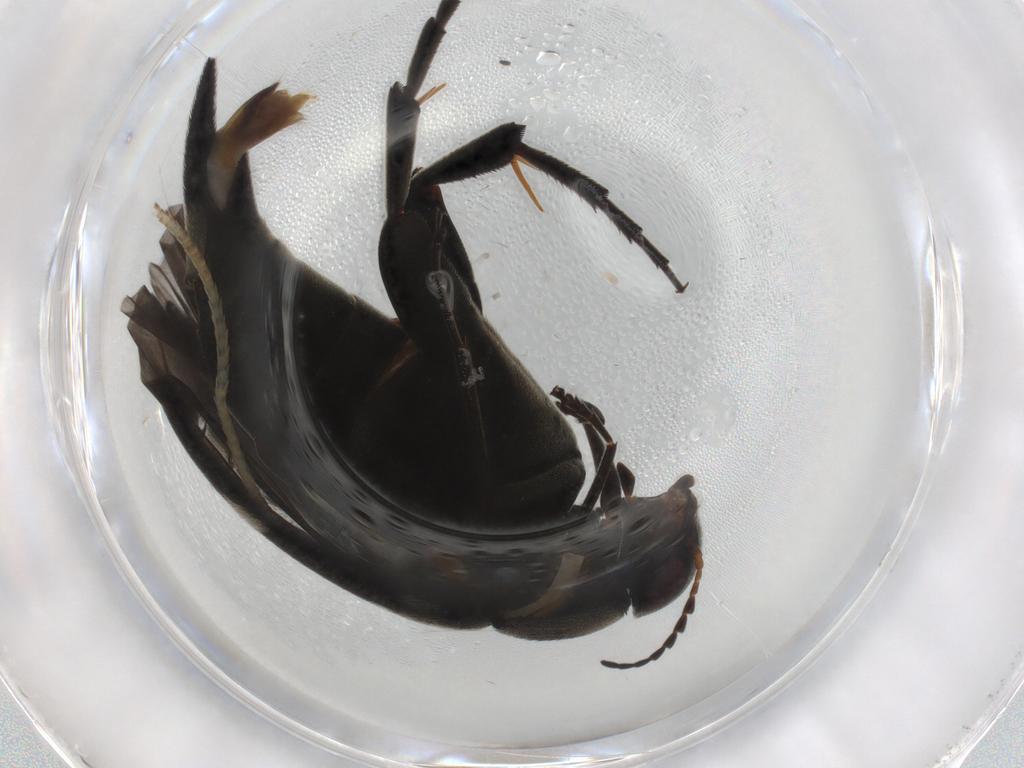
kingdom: Animalia
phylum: Arthropoda
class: Insecta
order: Coleoptera
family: Mordellidae
